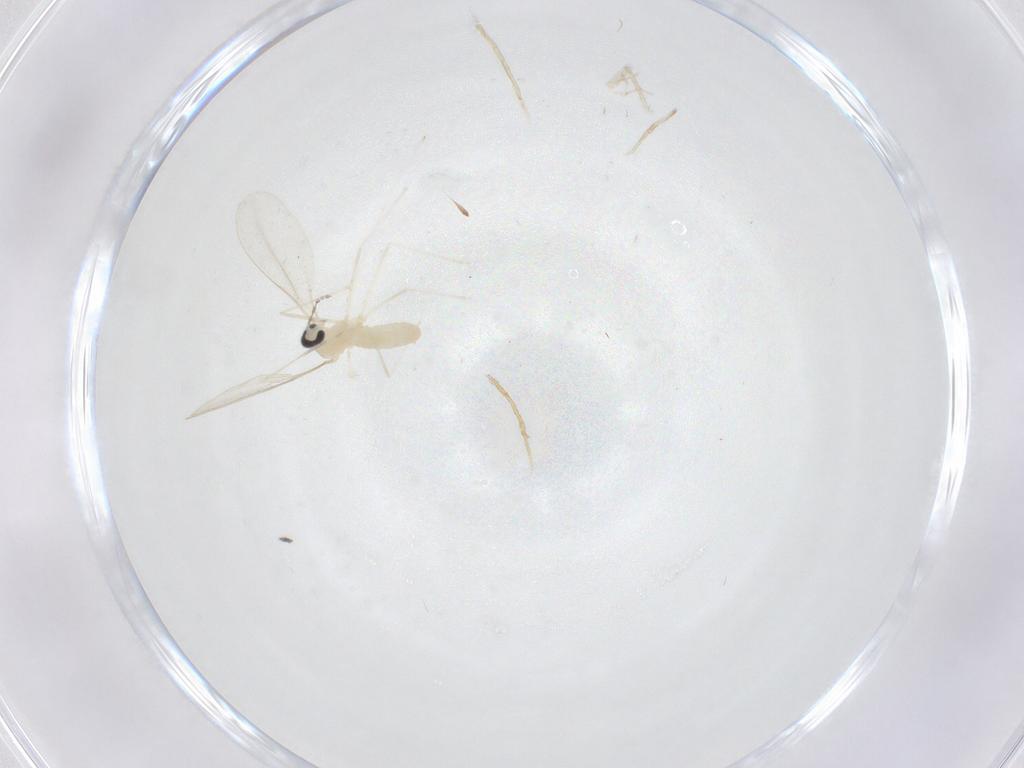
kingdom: Animalia
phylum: Arthropoda
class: Insecta
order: Diptera
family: Cecidomyiidae
